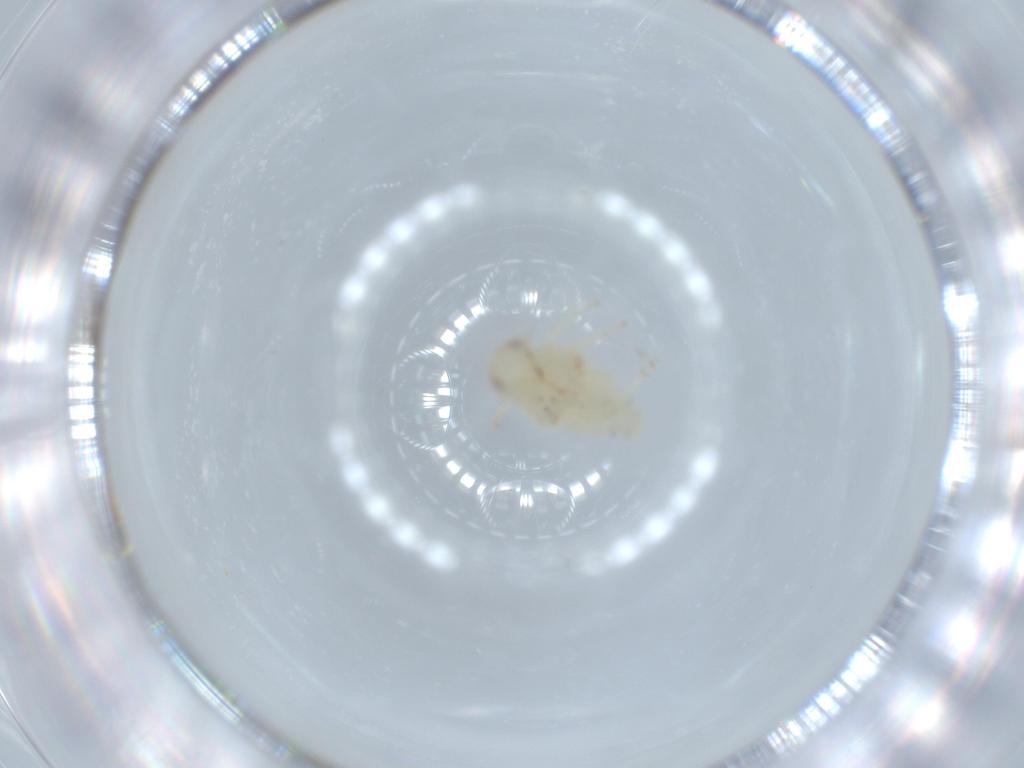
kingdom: Animalia
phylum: Arthropoda
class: Insecta
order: Hemiptera
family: Nogodinidae
